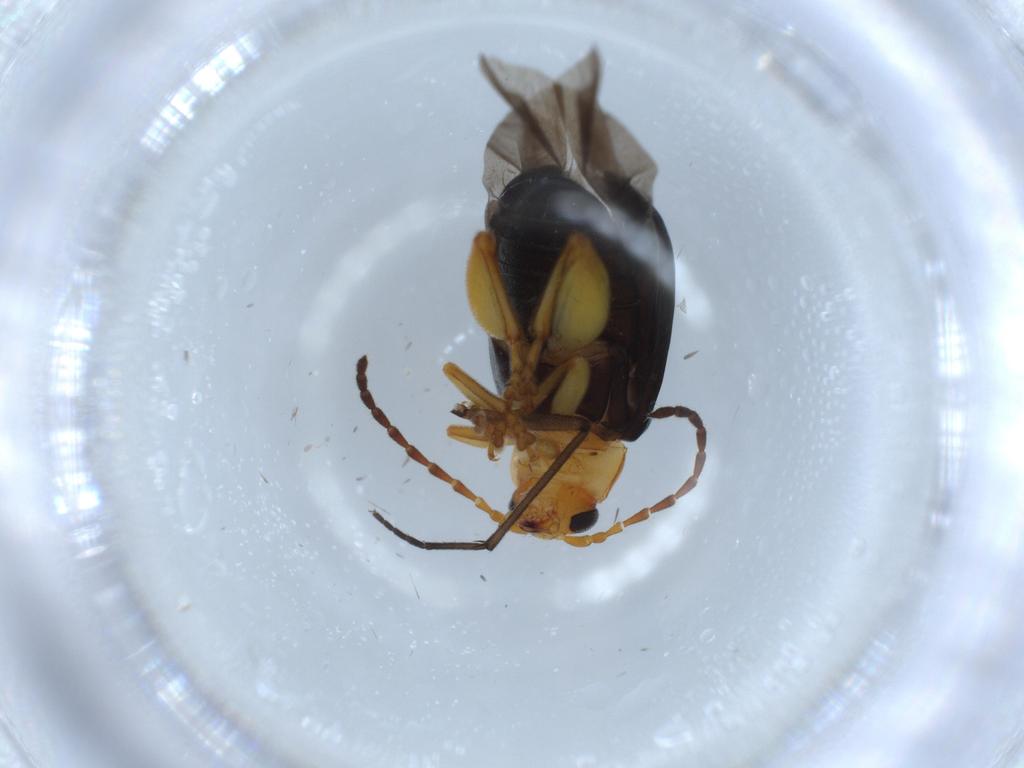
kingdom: Animalia
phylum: Arthropoda
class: Insecta
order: Coleoptera
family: Chrysomelidae
